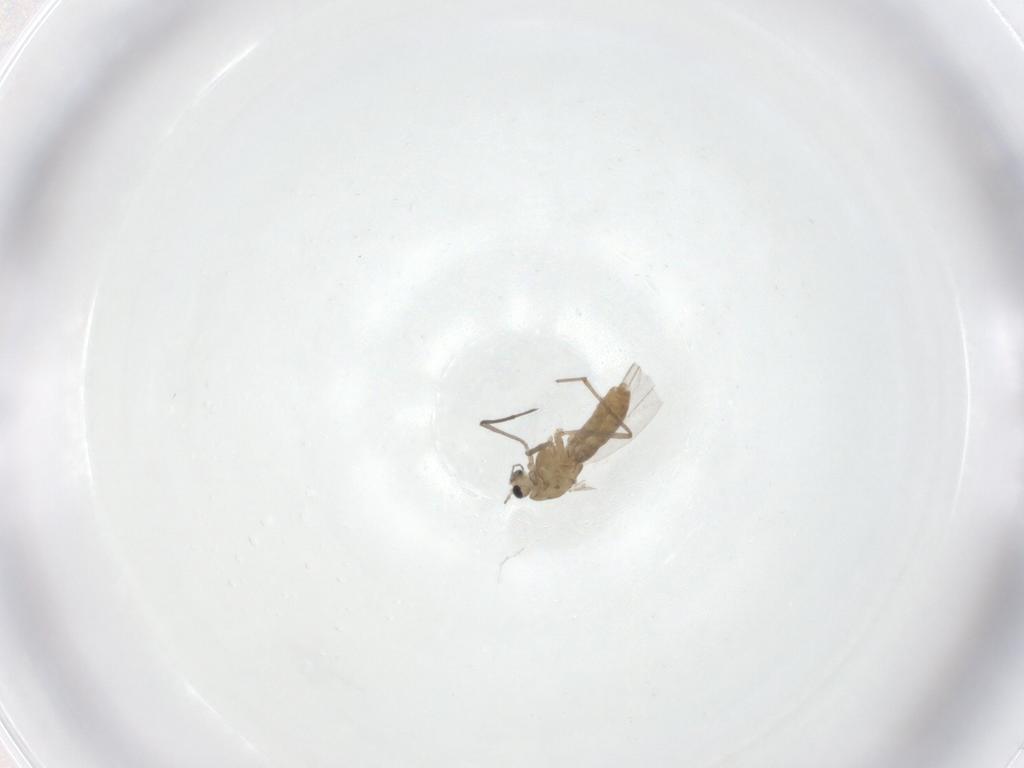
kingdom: Animalia
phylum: Arthropoda
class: Insecta
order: Diptera
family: Chironomidae
